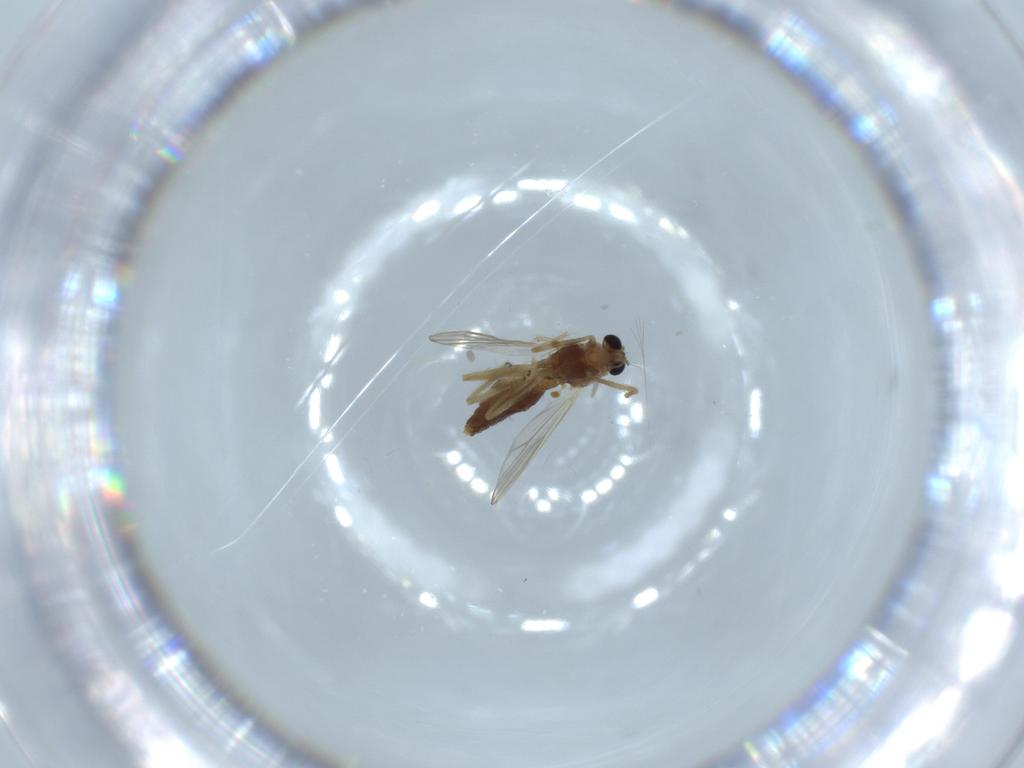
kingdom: Animalia
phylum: Arthropoda
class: Insecta
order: Diptera
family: Chironomidae
